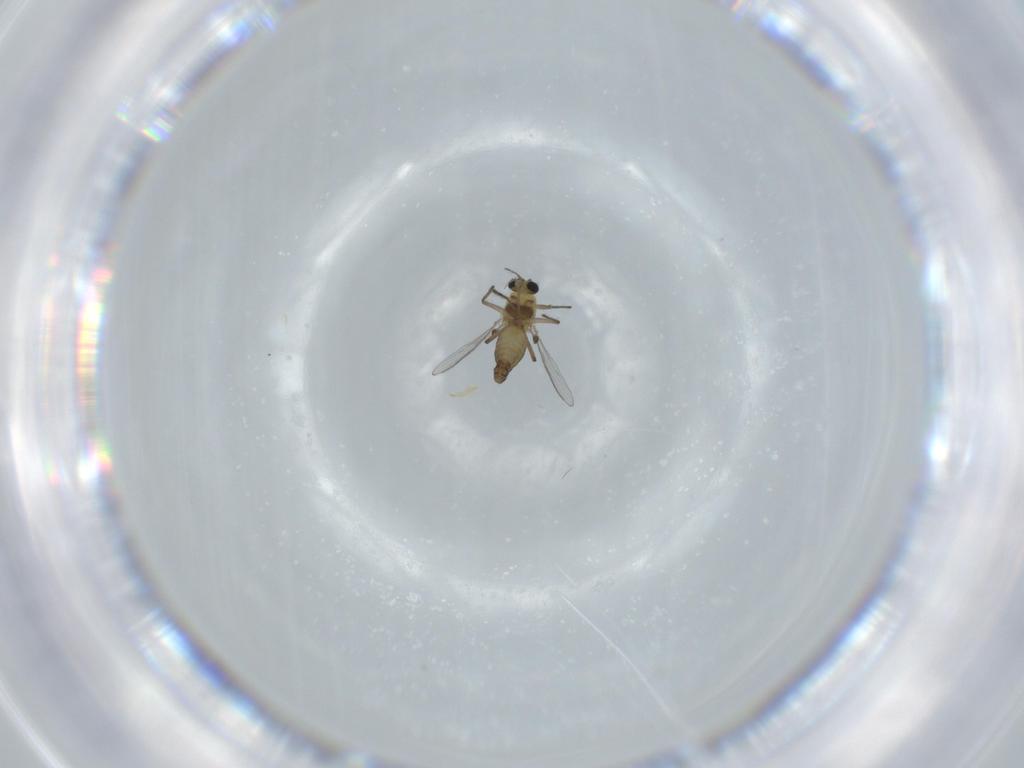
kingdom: Animalia
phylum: Arthropoda
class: Insecta
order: Diptera
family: Chironomidae
